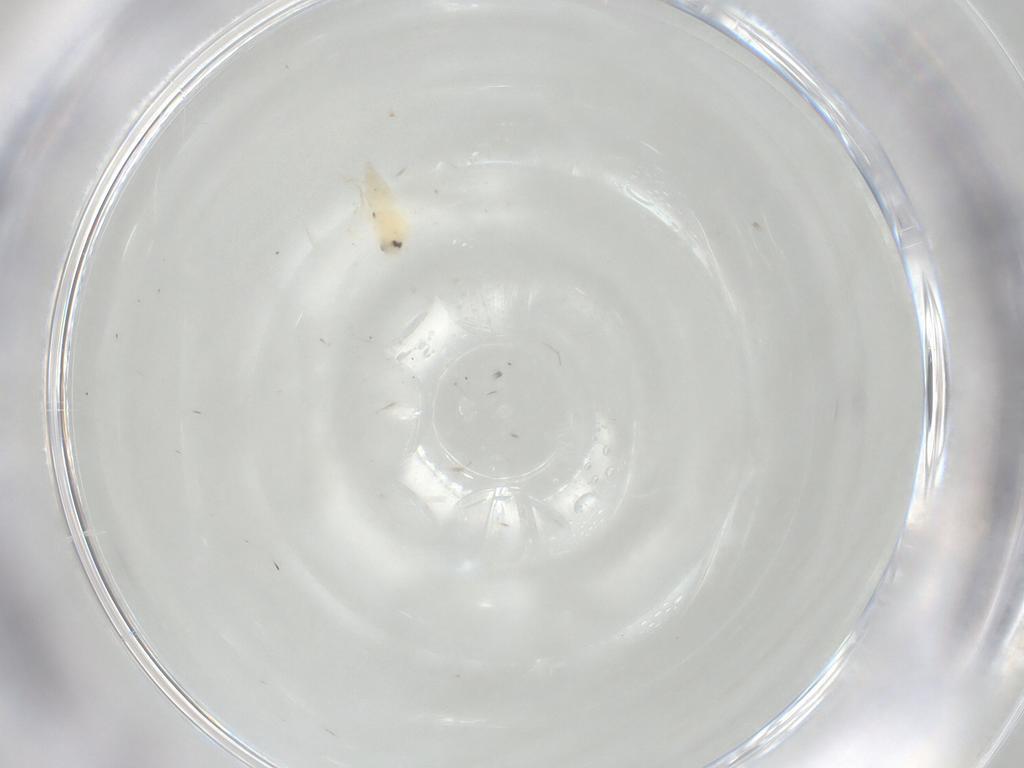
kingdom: Animalia
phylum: Arthropoda
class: Insecta
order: Diptera
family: Tachinidae
